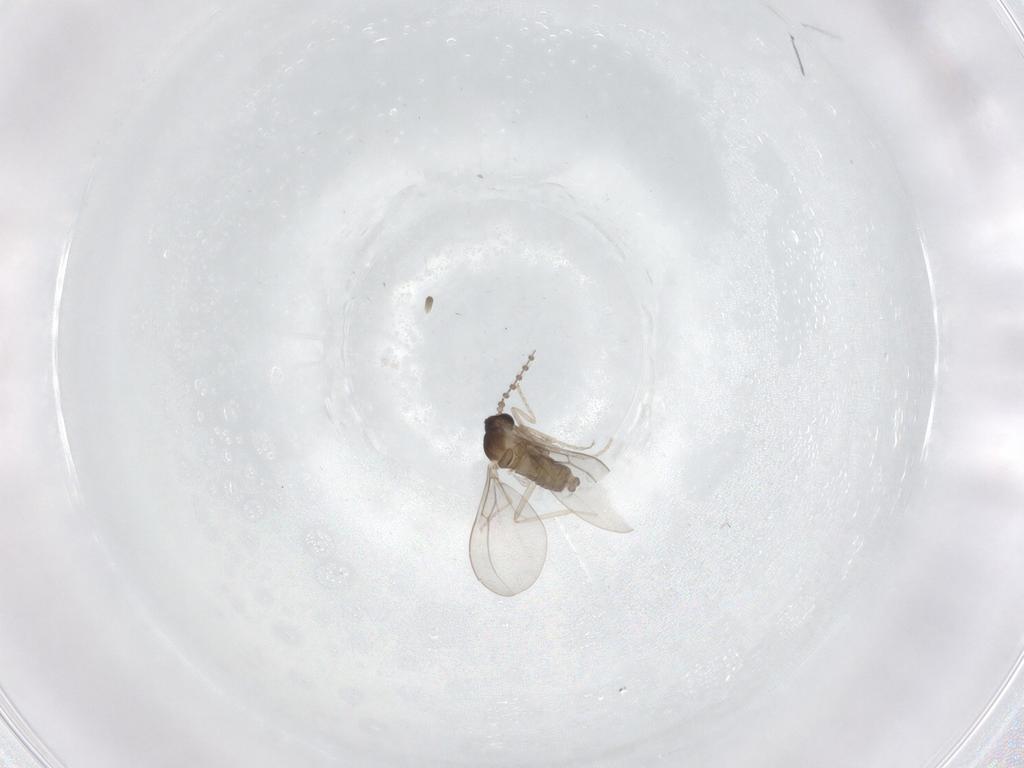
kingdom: Animalia
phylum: Arthropoda
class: Insecta
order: Diptera
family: Cecidomyiidae
